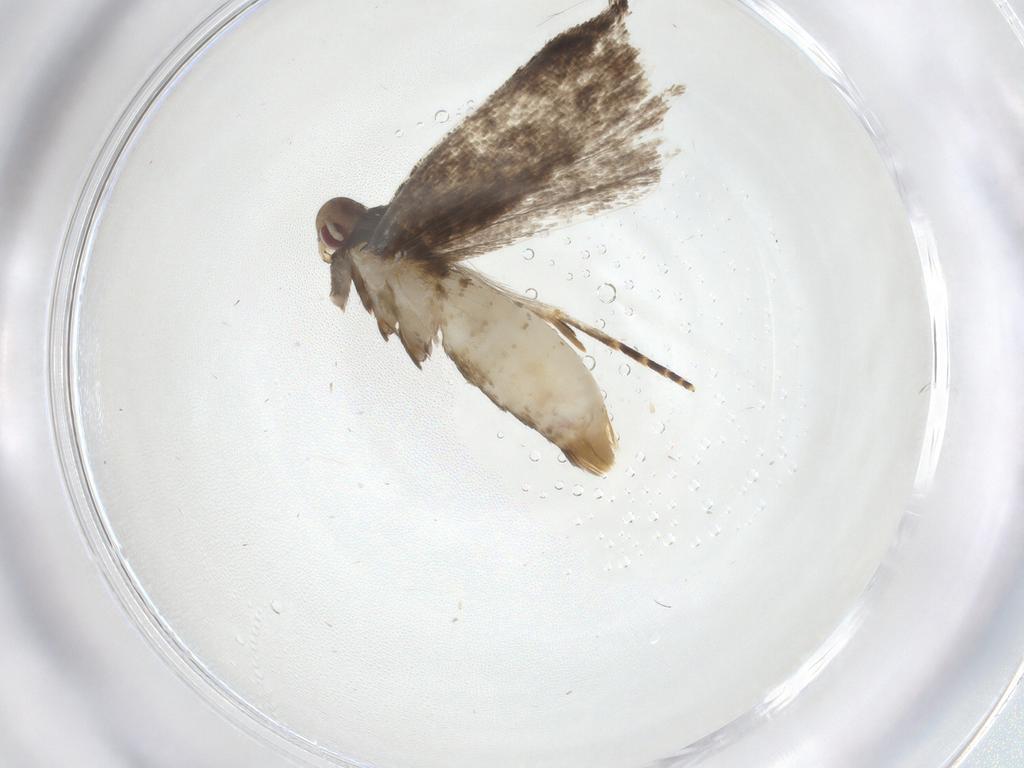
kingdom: Animalia
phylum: Arthropoda
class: Insecta
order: Lepidoptera
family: Gelechiidae
